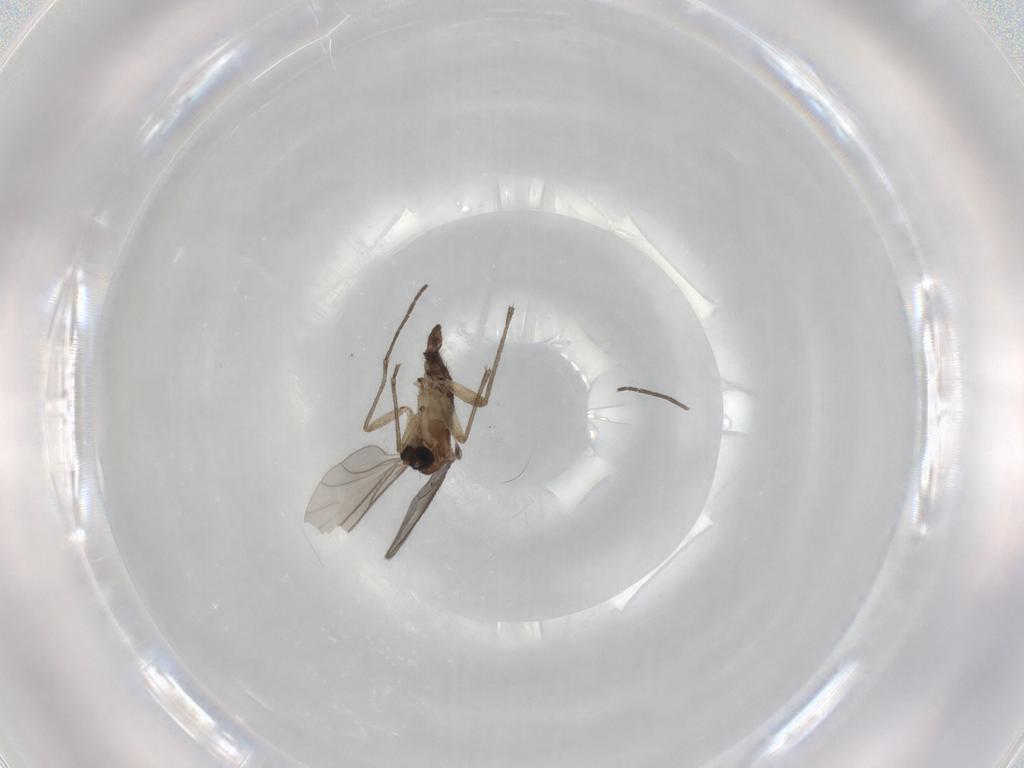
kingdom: Animalia
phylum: Arthropoda
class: Insecta
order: Diptera
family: Sciaridae
